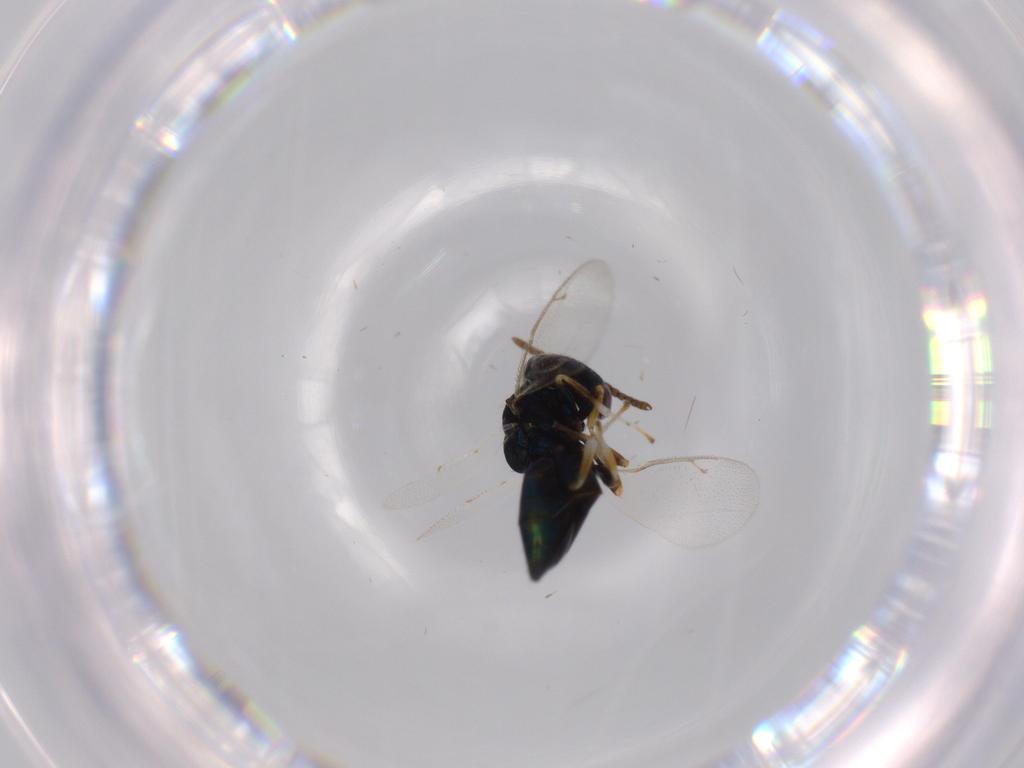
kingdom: Animalia
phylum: Arthropoda
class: Insecta
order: Hymenoptera
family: Pteromalidae
